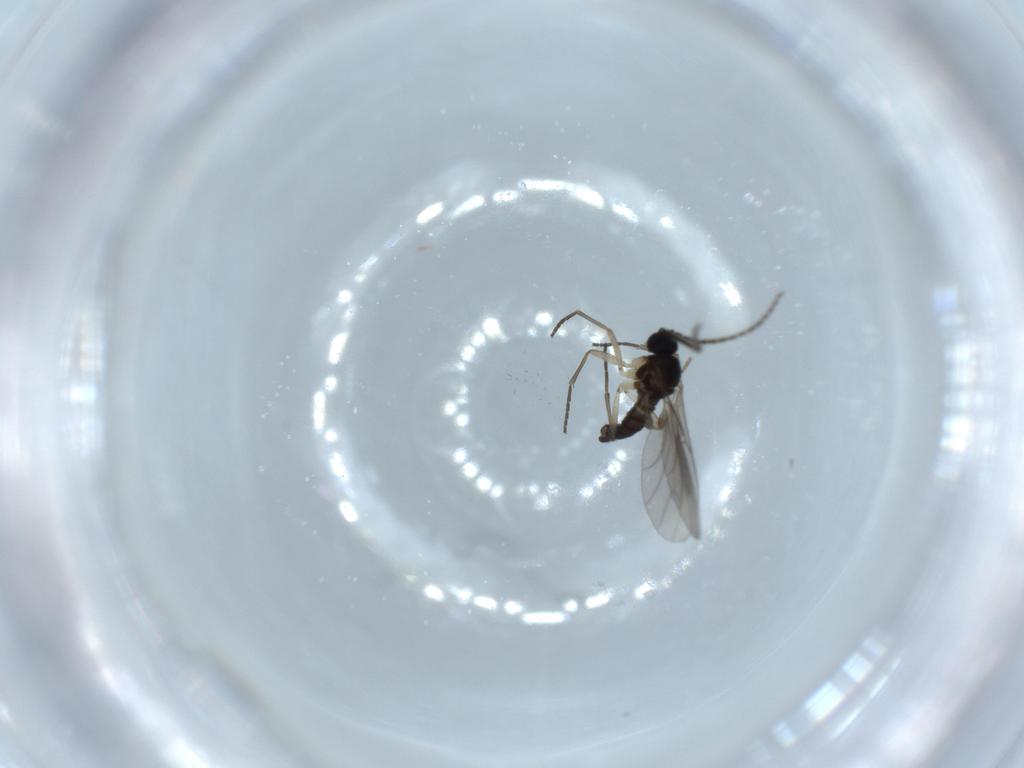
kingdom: Animalia
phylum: Arthropoda
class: Insecta
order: Diptera
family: Sciaridae
